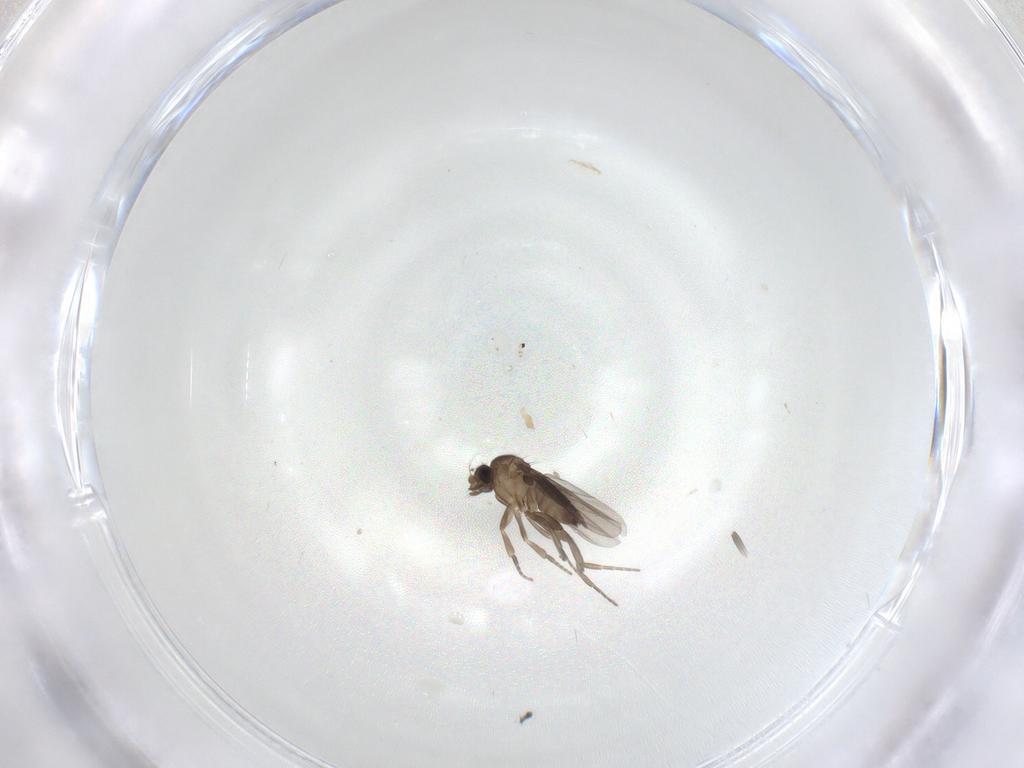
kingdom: Animalia
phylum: Arthropoda
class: Insecta
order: Diptera
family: Phoridae
